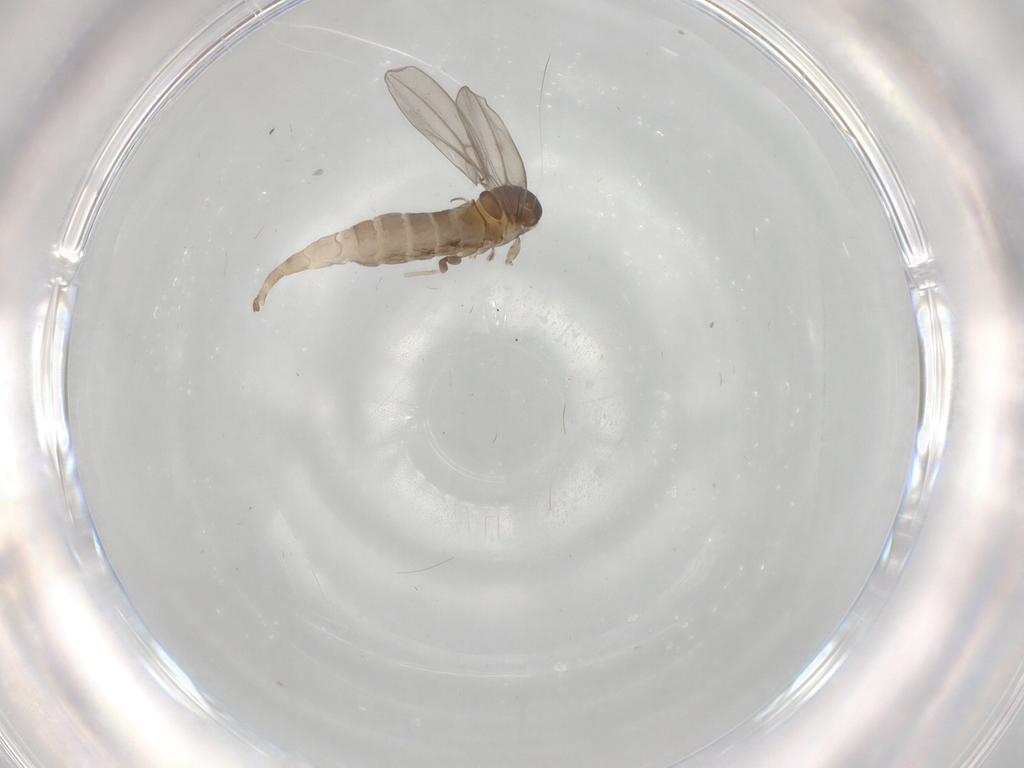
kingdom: Animalia
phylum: Arthropoda
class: Insecta
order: Diptera
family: Cecidomyiidae
